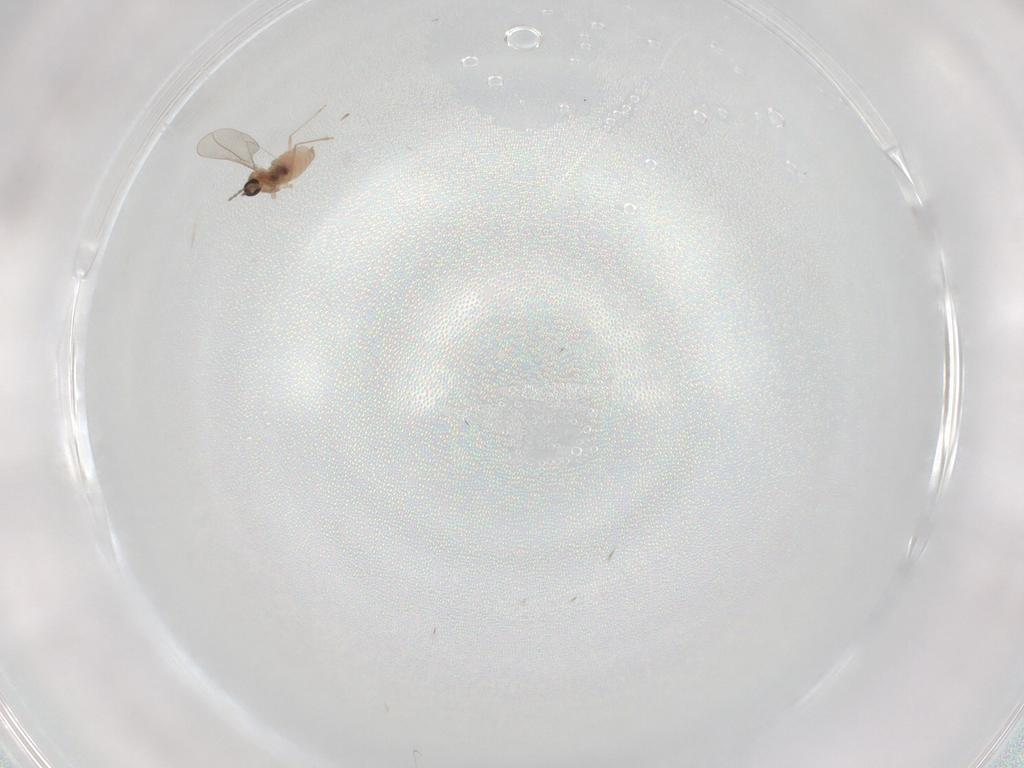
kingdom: Animalia
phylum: Arthropoda
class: Insecta
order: Diptera
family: Cecidomyiidae
